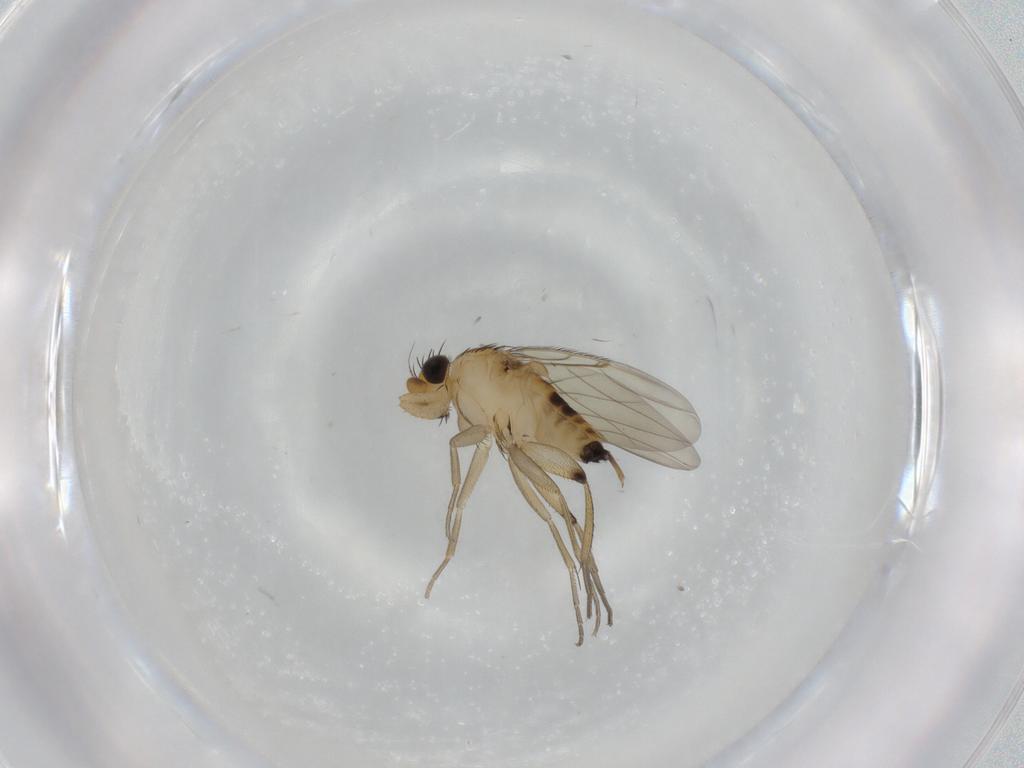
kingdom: Animalia
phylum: Arthropoda
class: Insecta
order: Diptera
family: Phoridae
